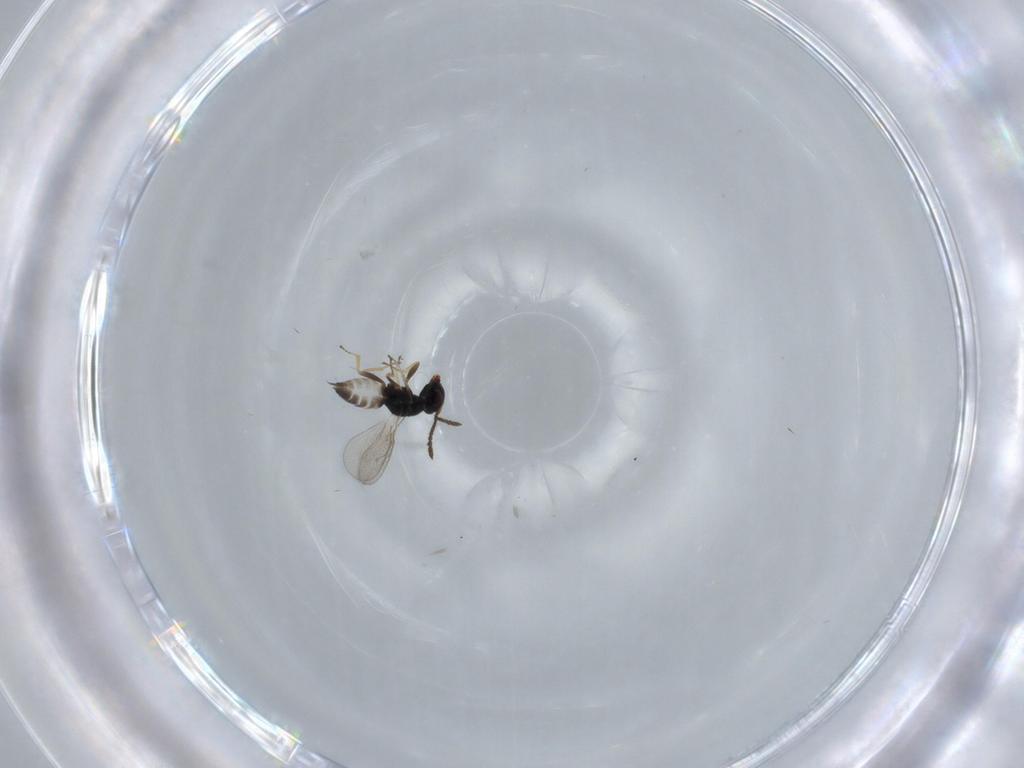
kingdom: Animalia
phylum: Arthropoda
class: Insecta
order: Hymenoptera
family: Pteromalidae
